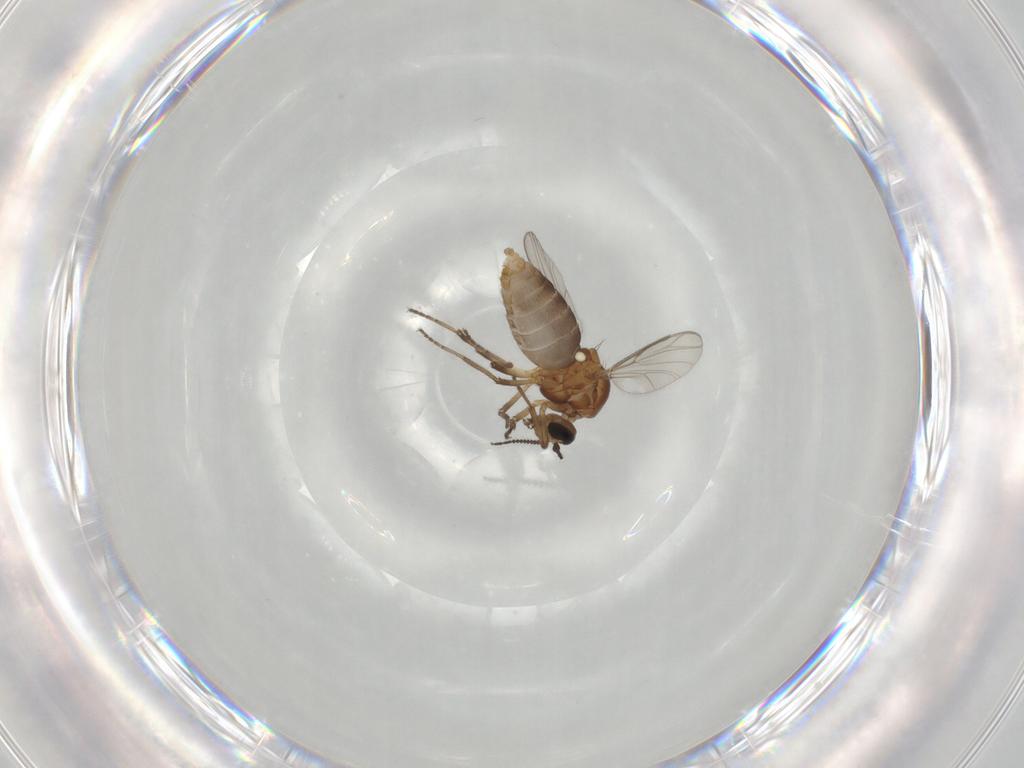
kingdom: Animalia
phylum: Arthropoda
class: Insecta
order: Diptera
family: Ceratopogonidae
